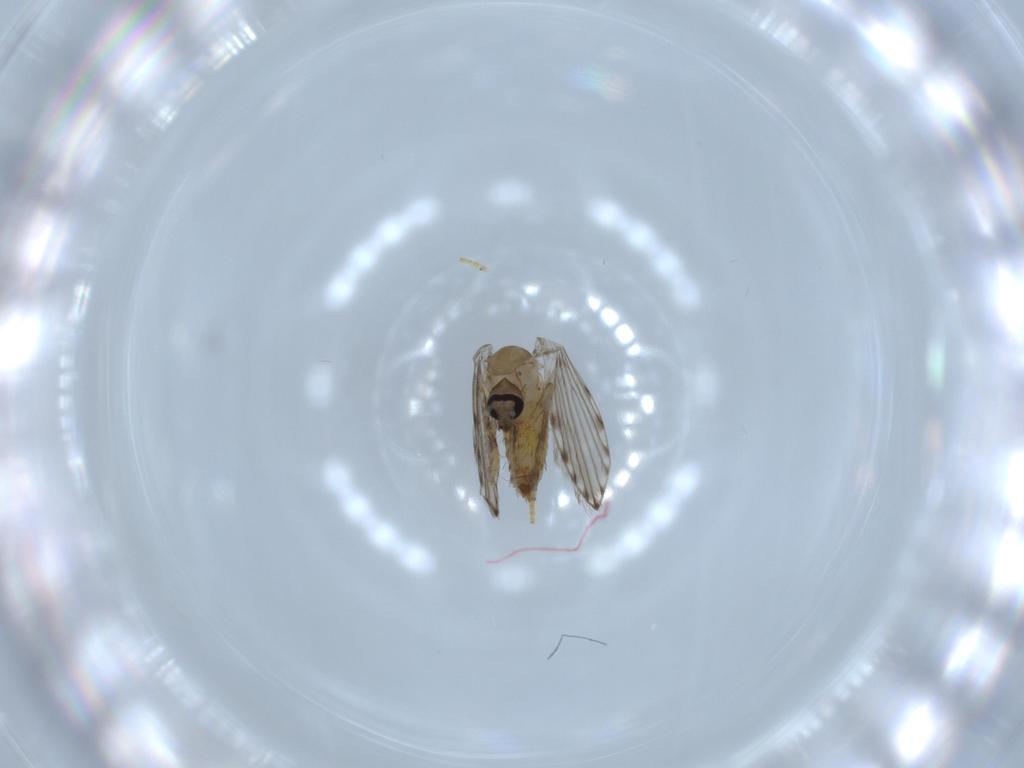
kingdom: Animalia
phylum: Arthropoda
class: Insecta
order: Diptera
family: Psychodidae
